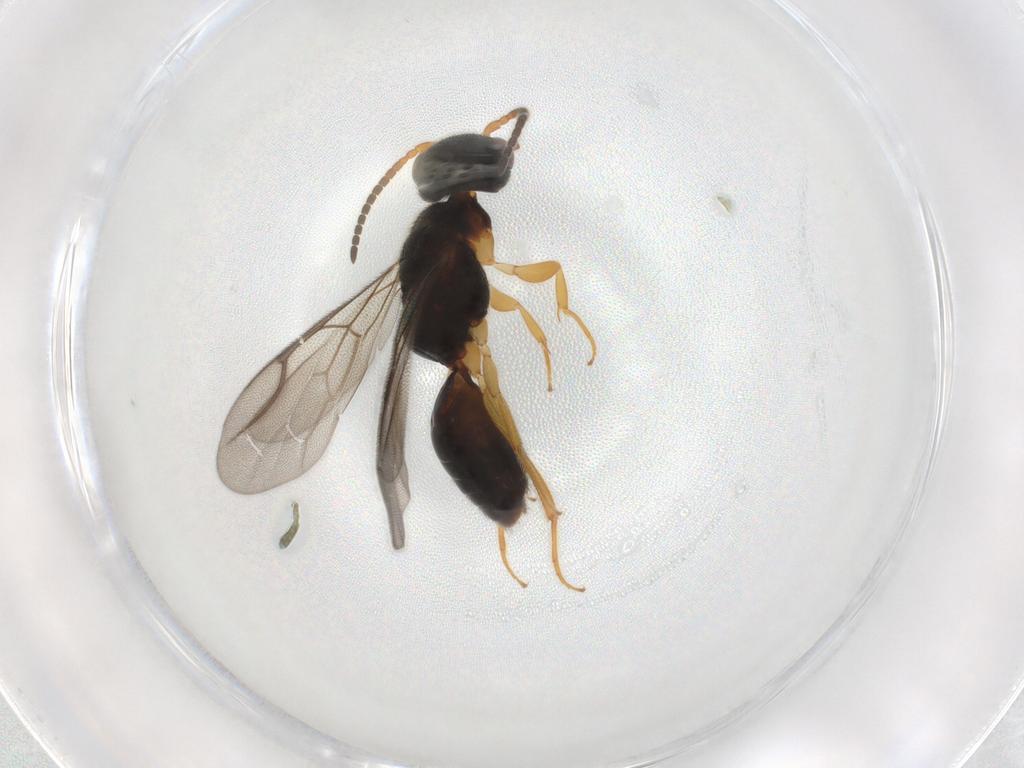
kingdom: Animalia
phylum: Arthropoda
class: Insecta
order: Hymenoptera
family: Bethylidae
